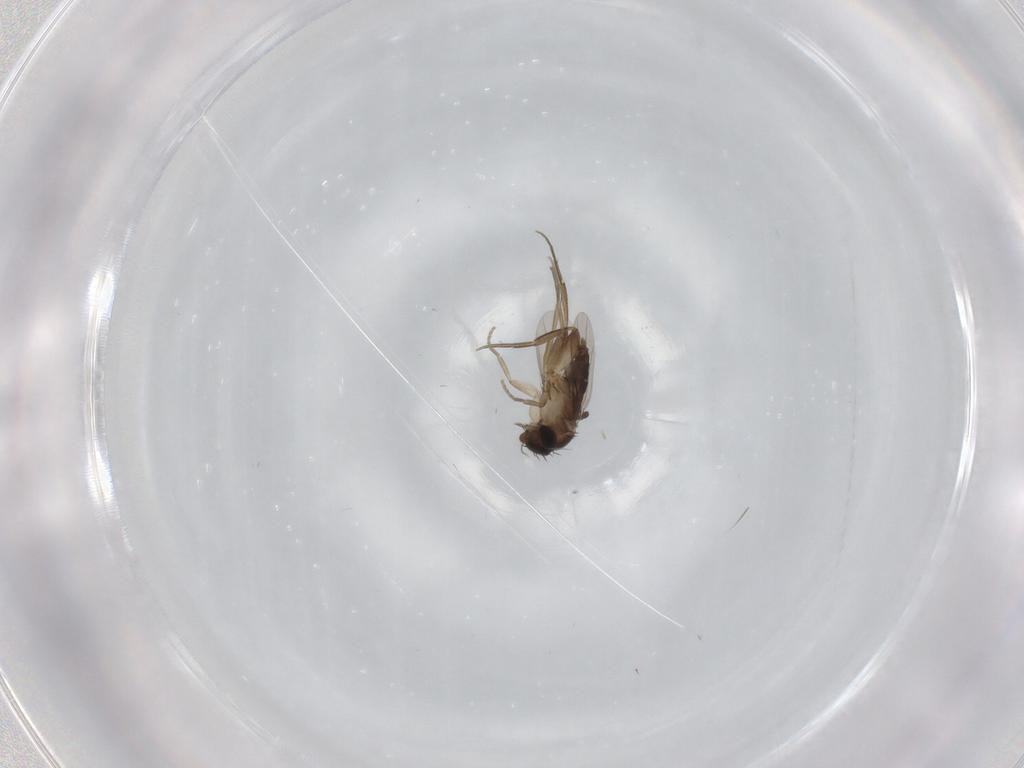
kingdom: Animalia
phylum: Arthropoda
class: Insecta
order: Diptera
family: Phoridae
